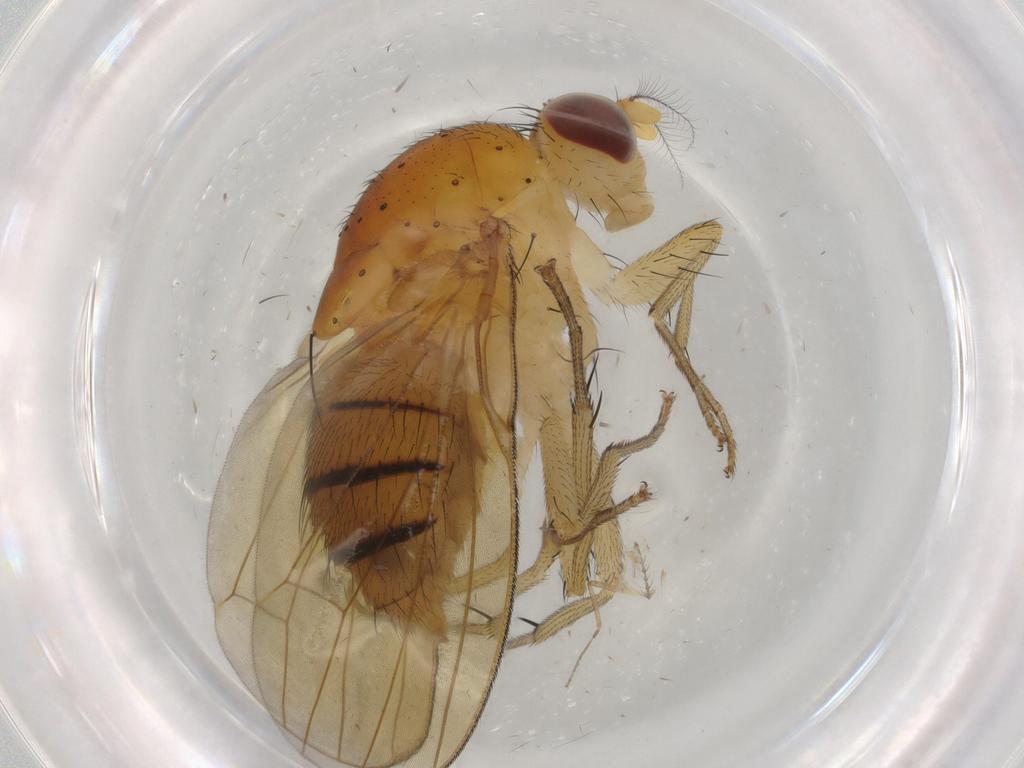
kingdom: Animalia
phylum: Arthropoda
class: Insecta
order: Diptera
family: Ceratopogonidae
